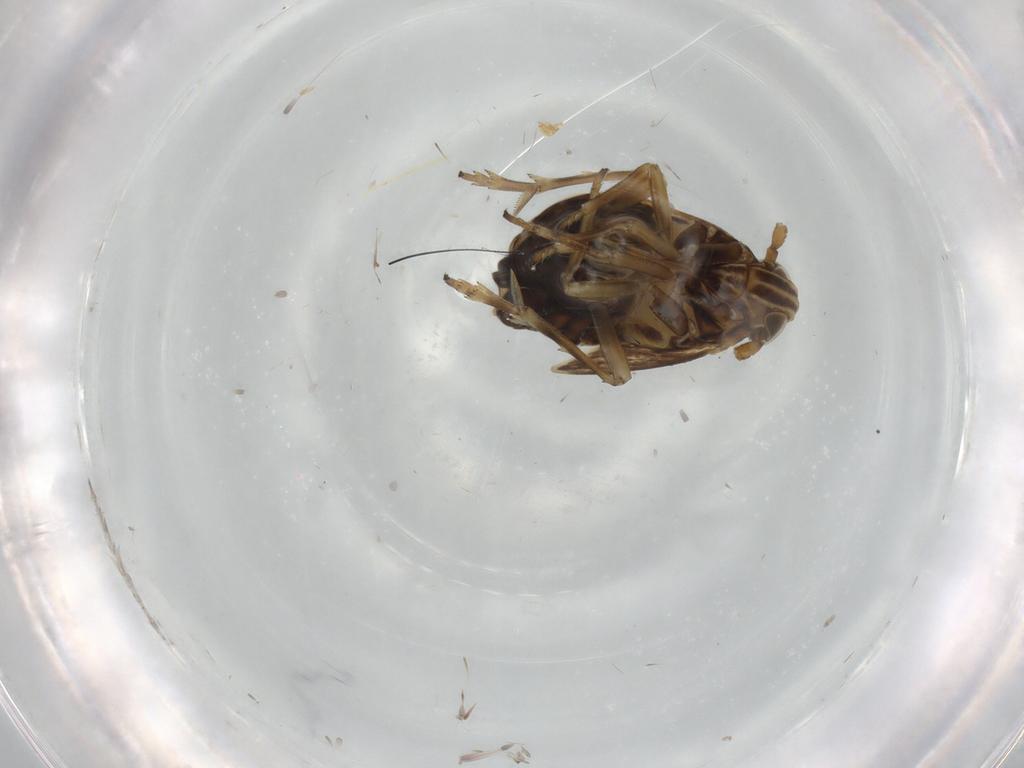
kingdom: Animalia
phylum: Arthropoda
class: Insecta
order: Hemiptera
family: Delphacidae
